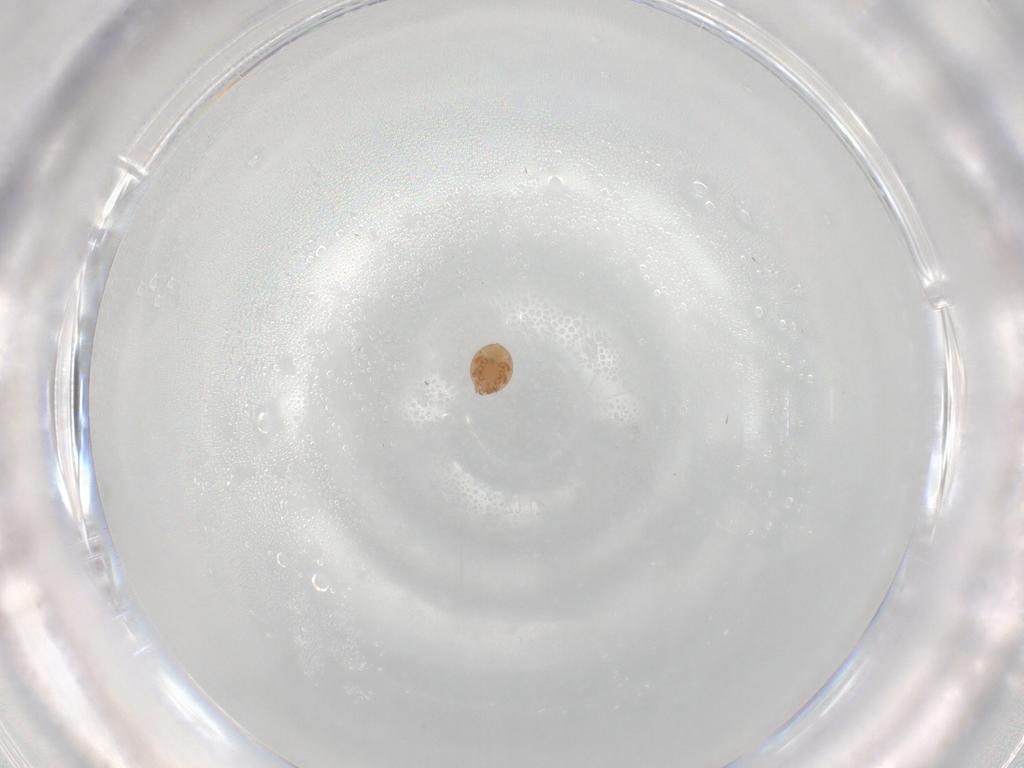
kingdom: Animalia
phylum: Arthropoda
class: Arachnida
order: Mesostigmata
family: Trematuridae
